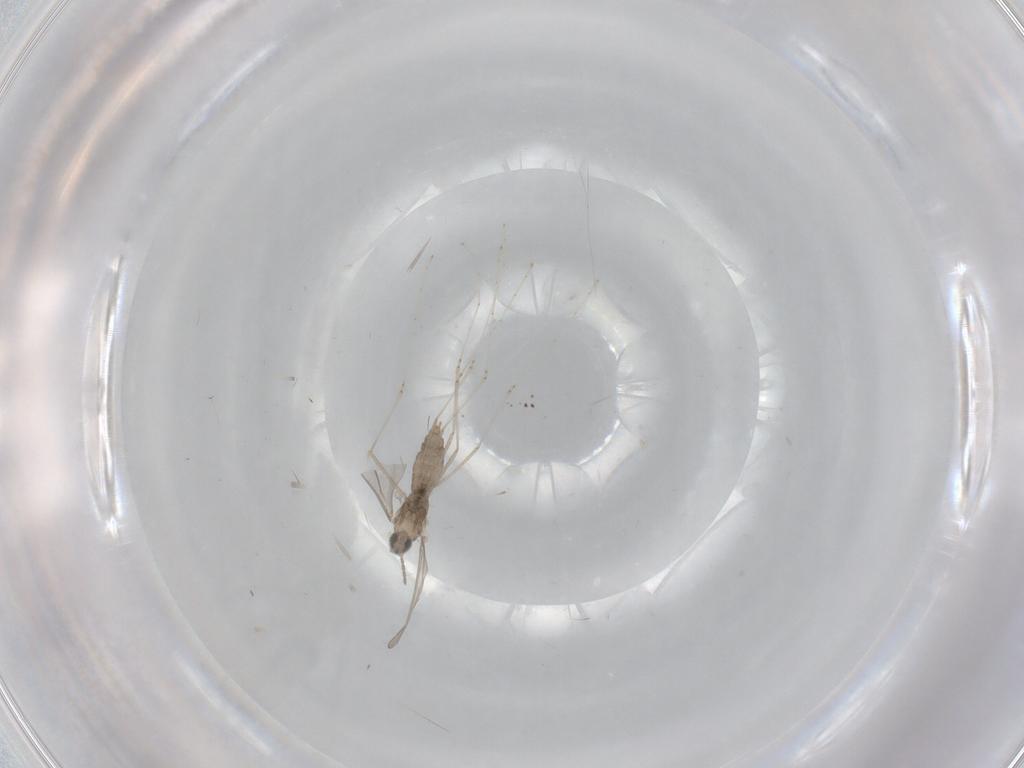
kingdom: Animalia
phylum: Arthropoda
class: Insecta
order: Diptera
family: Cecidomyiidae
